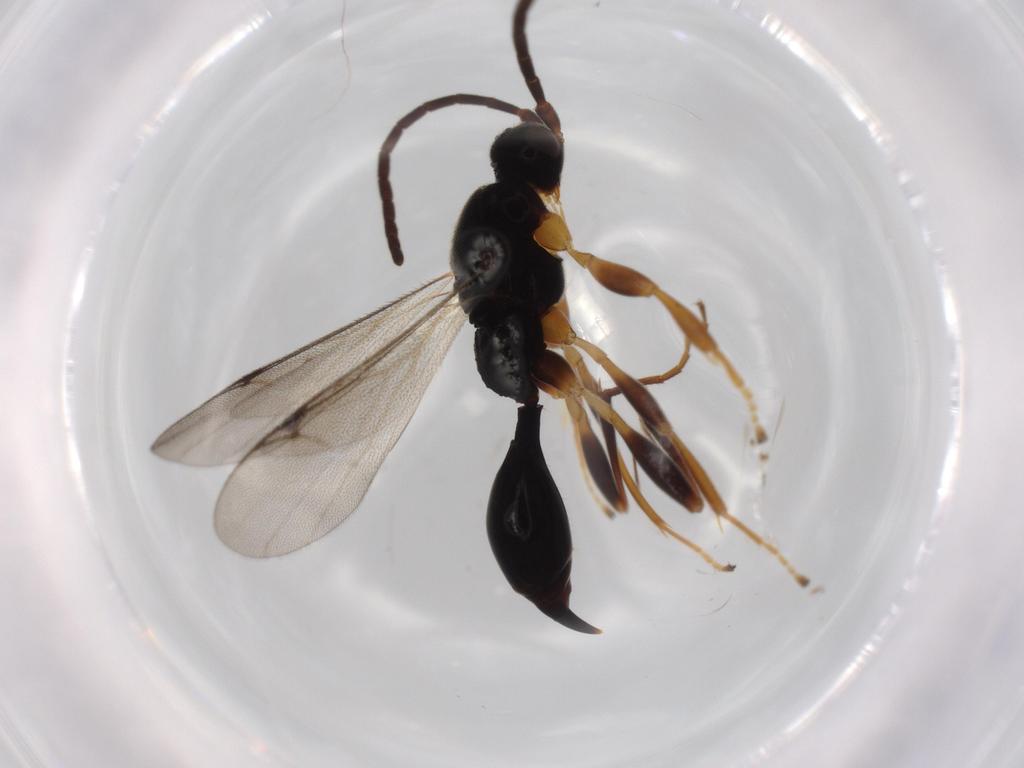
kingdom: Animalia
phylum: Arthropoda
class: Insecta
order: Hymenoptera
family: Proctotrupidae
